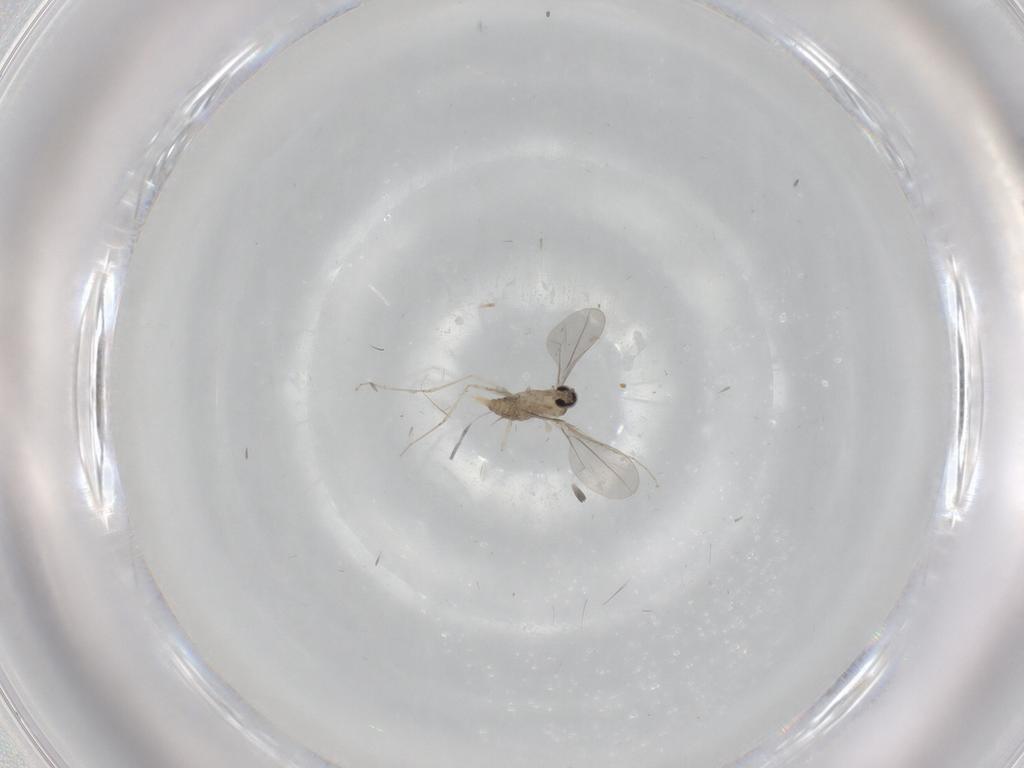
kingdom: Animalia
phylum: Arthropoda
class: Insecta
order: Diptera
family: Cecidomyiidae
